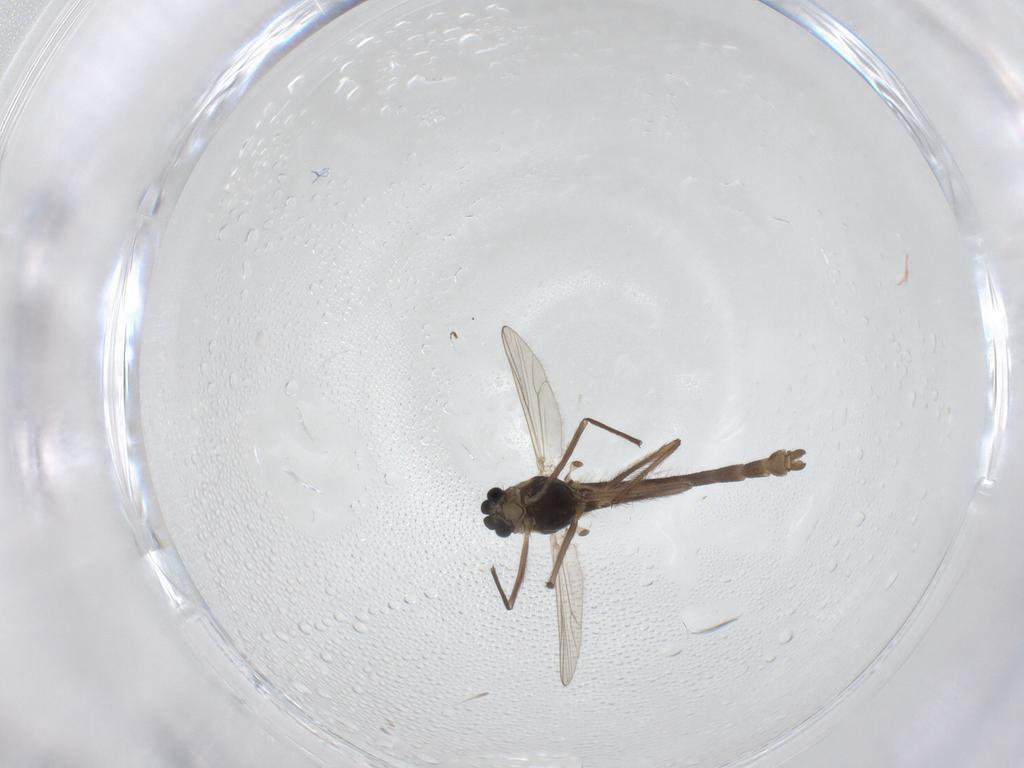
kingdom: Animalia
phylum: Arthropoda
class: Insecta
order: Diptera
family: Chironomidae
